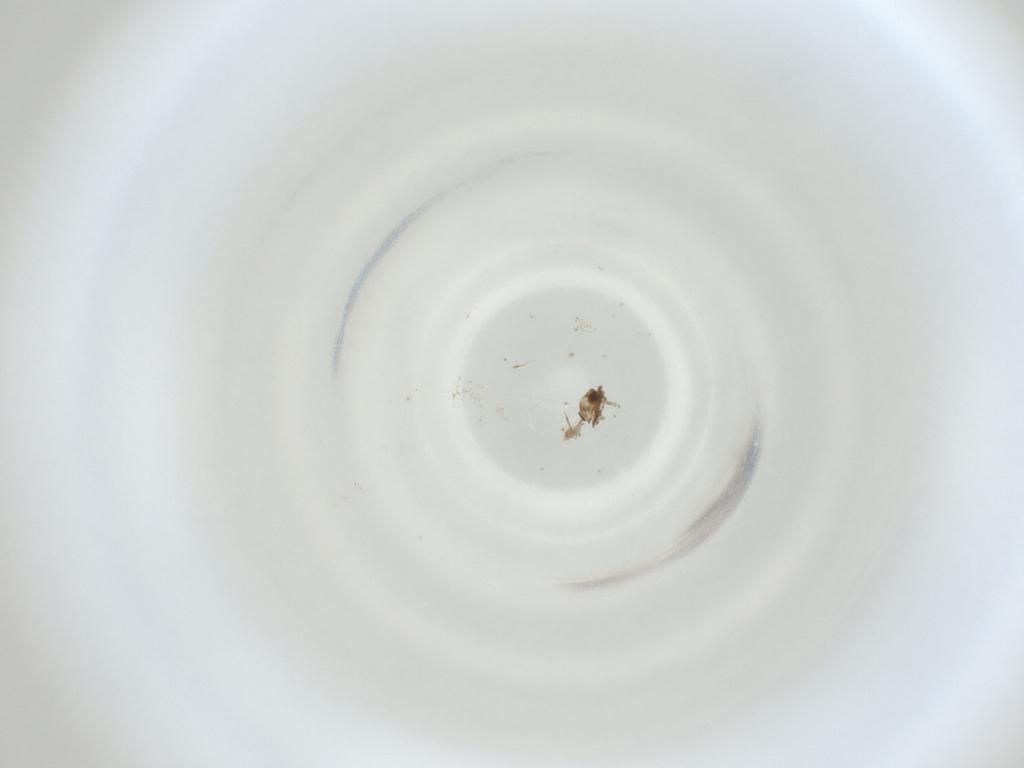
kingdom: Animalia
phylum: Arthropoda
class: Insecta
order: Diptera
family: Cecidomyiidae
